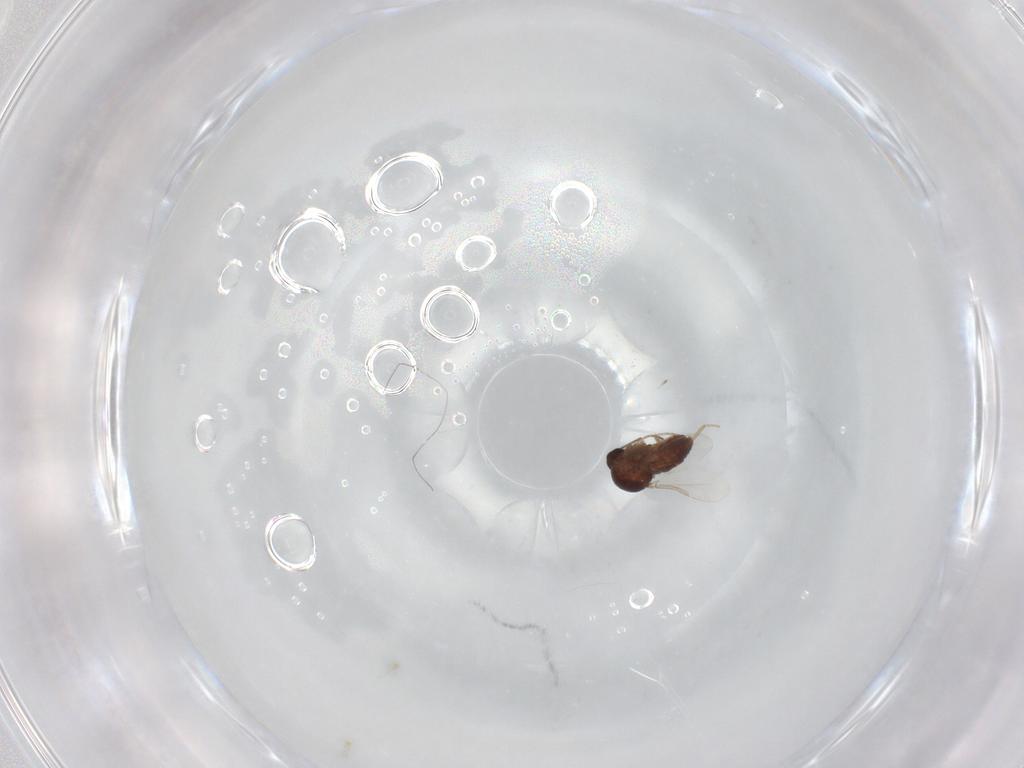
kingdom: Animalia
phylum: Arthropoda
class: Insecta
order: Diptera
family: Ceratopogonidae
